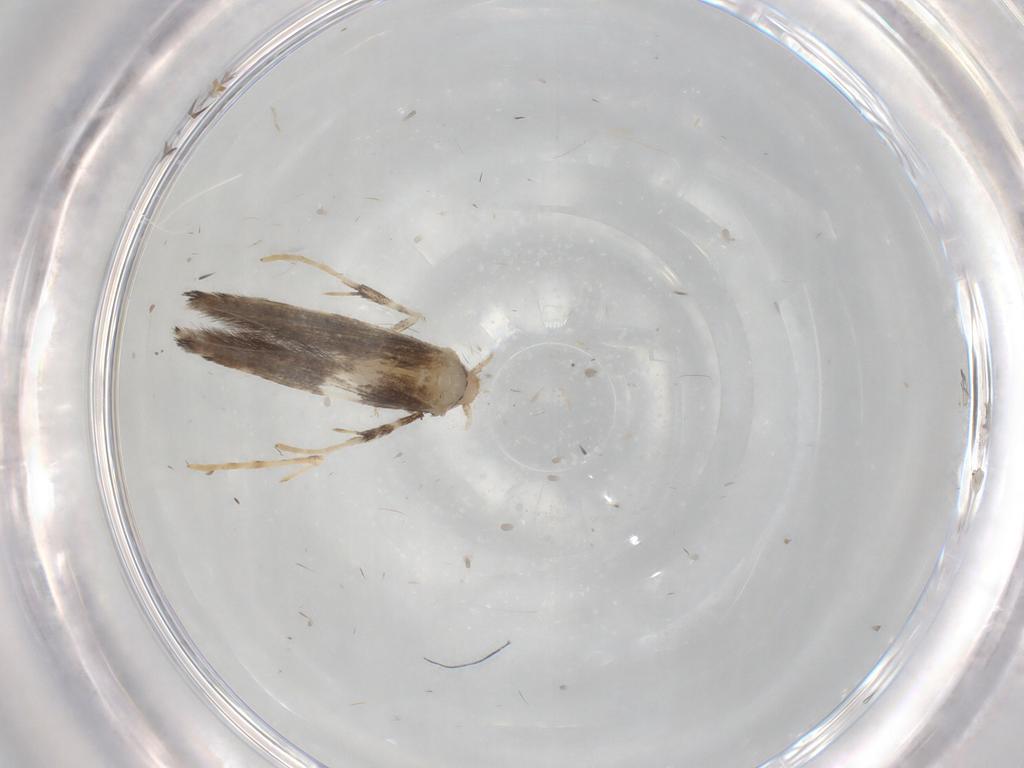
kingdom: Animalia
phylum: Arthropoda
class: Insecta
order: Lepidoptera
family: Gracillariidae
